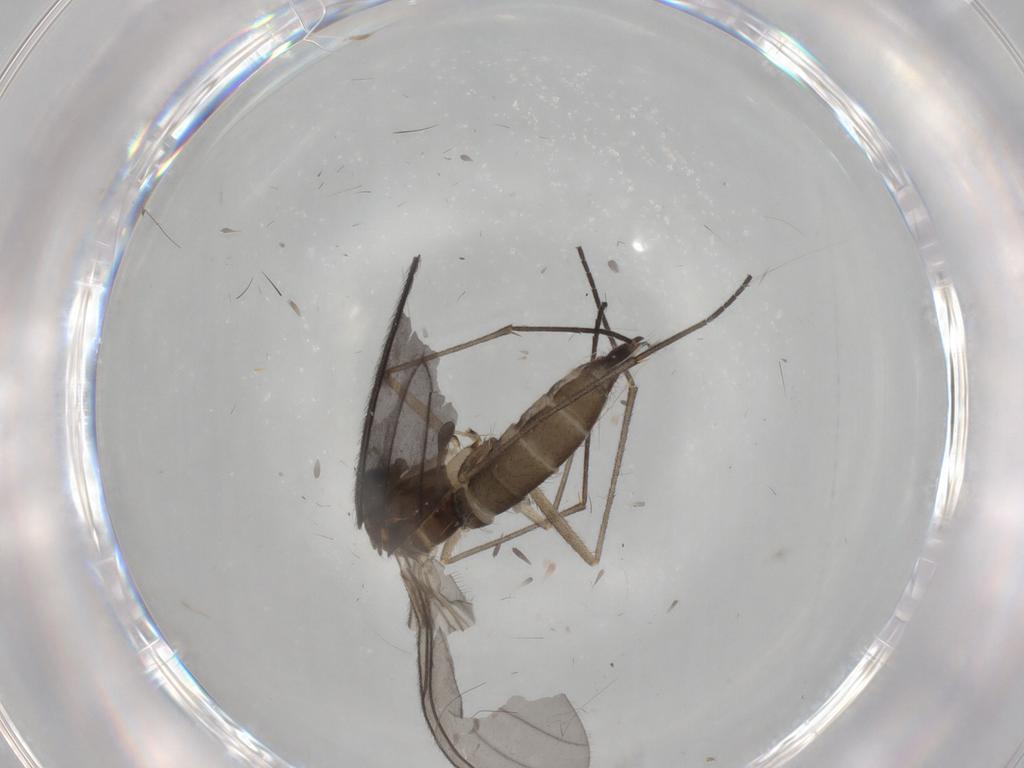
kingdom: Animalia
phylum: Arthropoda
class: Insecta
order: Diptera
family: Sciaridae
